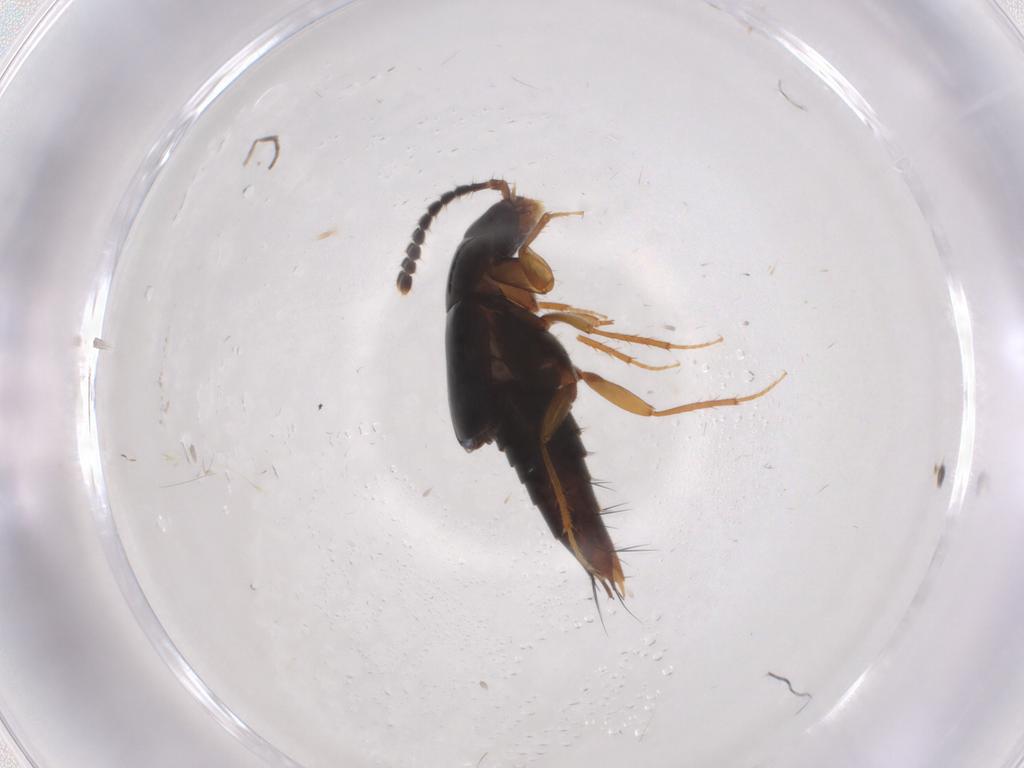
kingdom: Animalia
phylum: Arthropoda
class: Insecta
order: Coleoptera
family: Staphylinidae
